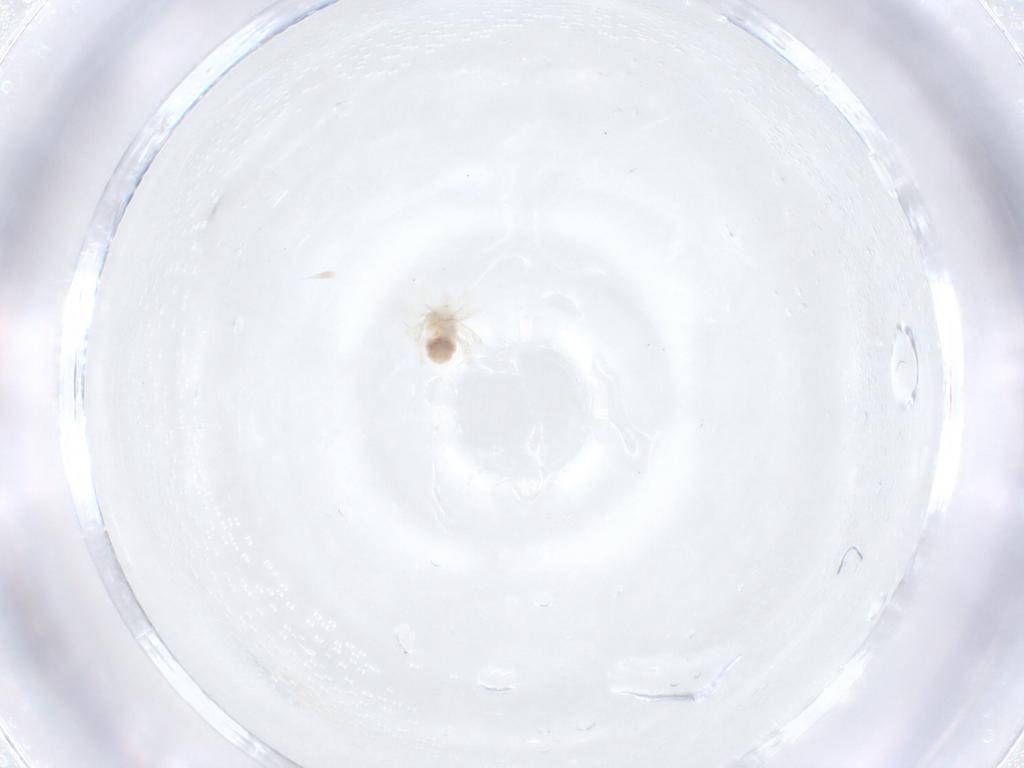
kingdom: Animalia
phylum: Arthropoda
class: Arachnida
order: Trombidiformes
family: Anystidae
